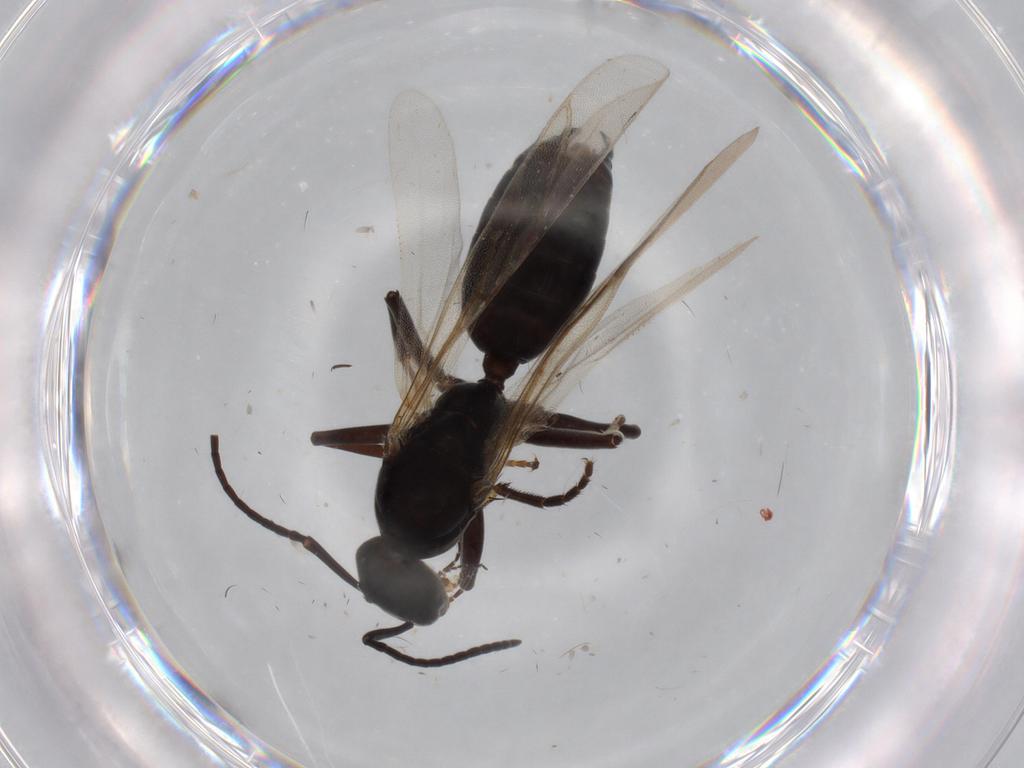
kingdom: Animalia
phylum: Arthropoda
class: Insecta
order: Hymenoptera
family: Formicidae
